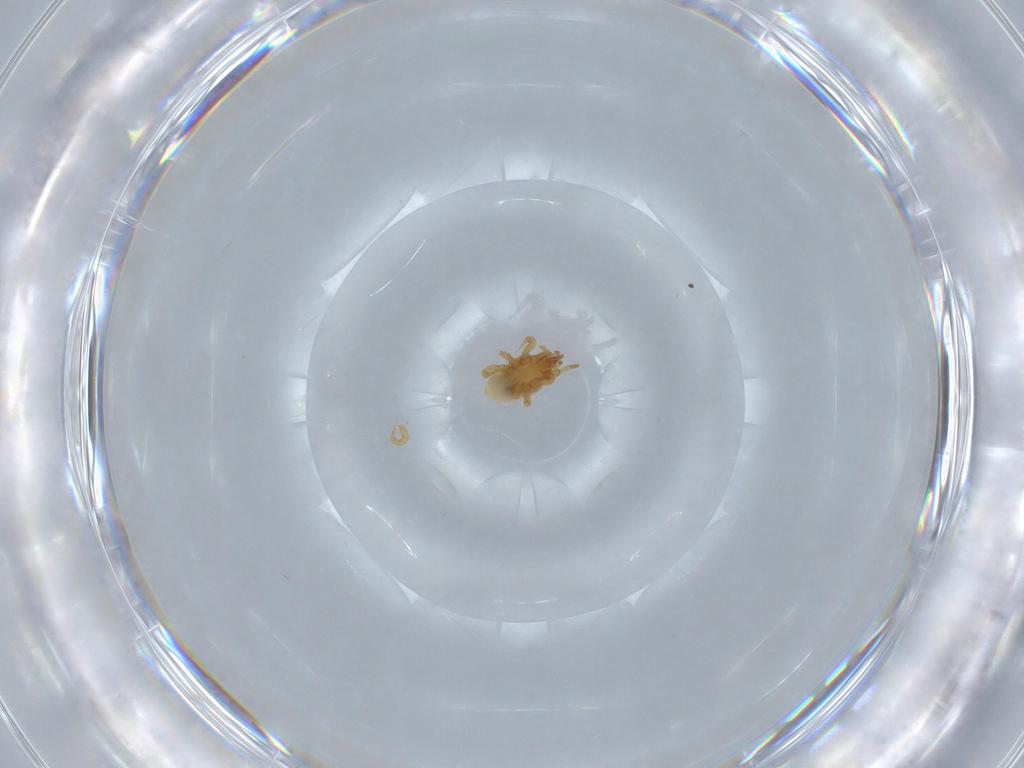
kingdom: Animalia
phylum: Arthropoda
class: Arachnida
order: Mesostigmata
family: Parasitidae
